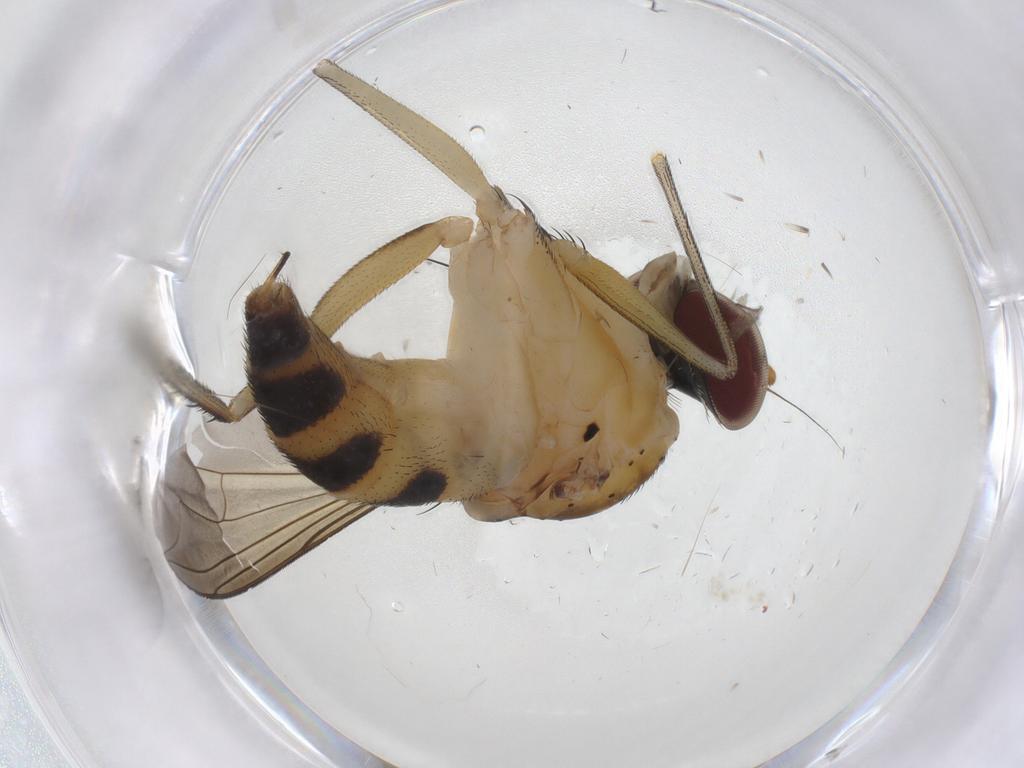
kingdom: Animalia
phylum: Arthropoda
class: Insecta
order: Diptera
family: Dolichopodidae
